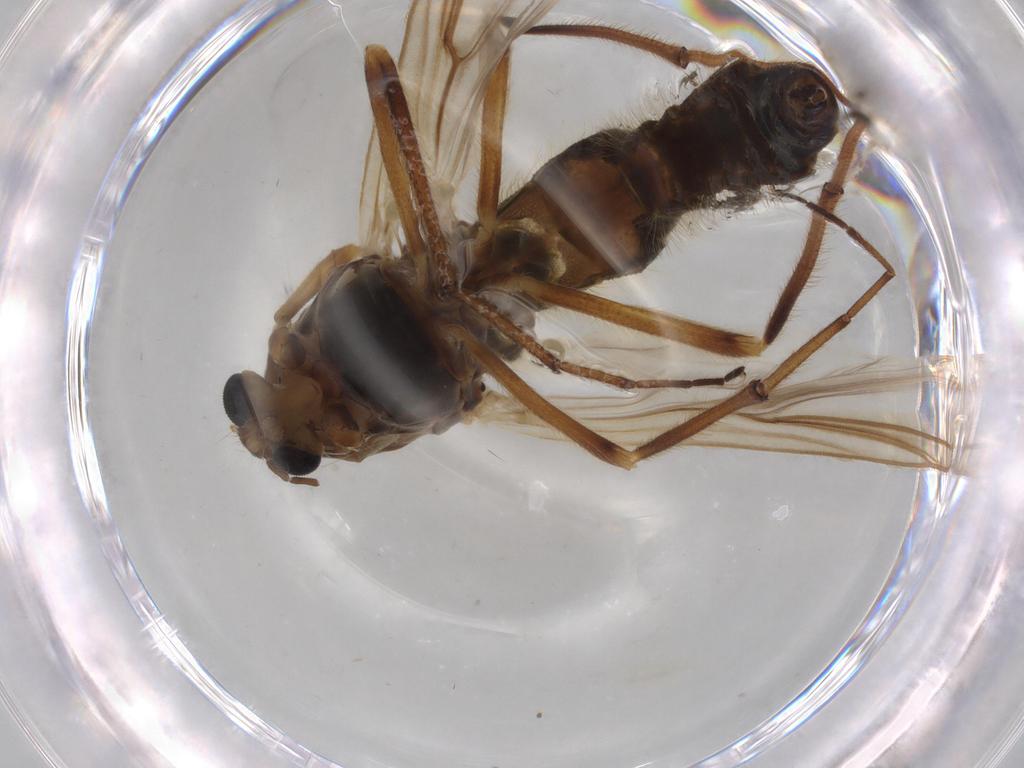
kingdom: Animalia
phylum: Arthropoda
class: Insecta
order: Diptera
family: Chironomidae
